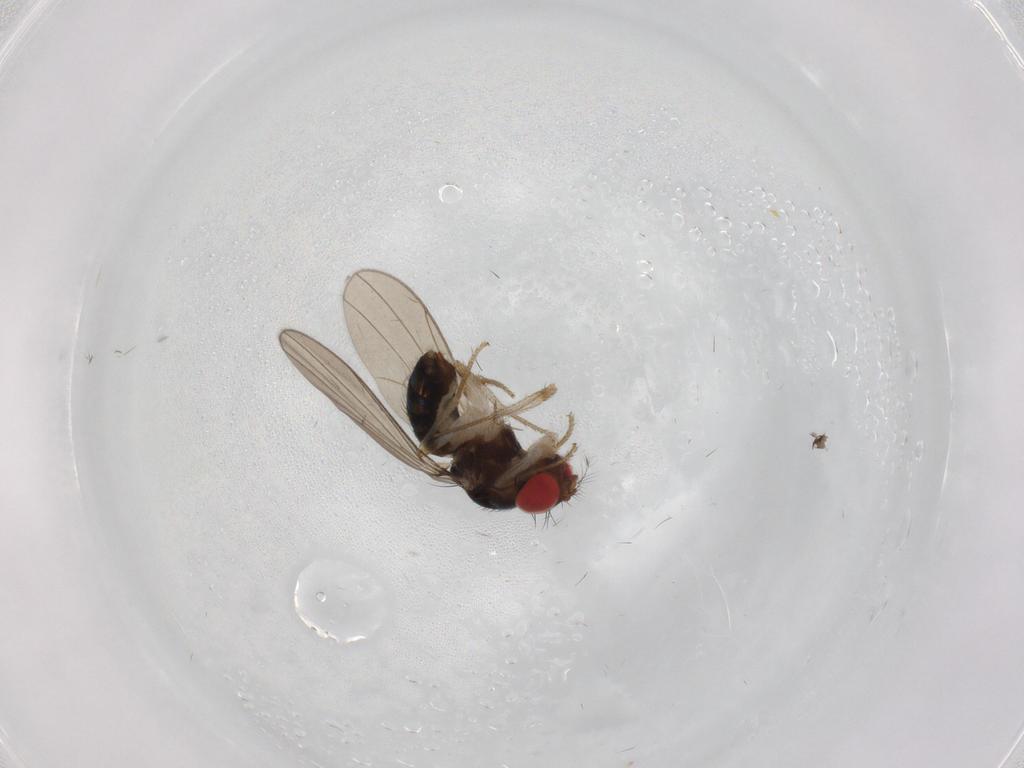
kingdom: Animalia
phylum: Arthropoda
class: Insecta
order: Diptera
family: Drosophilidae
